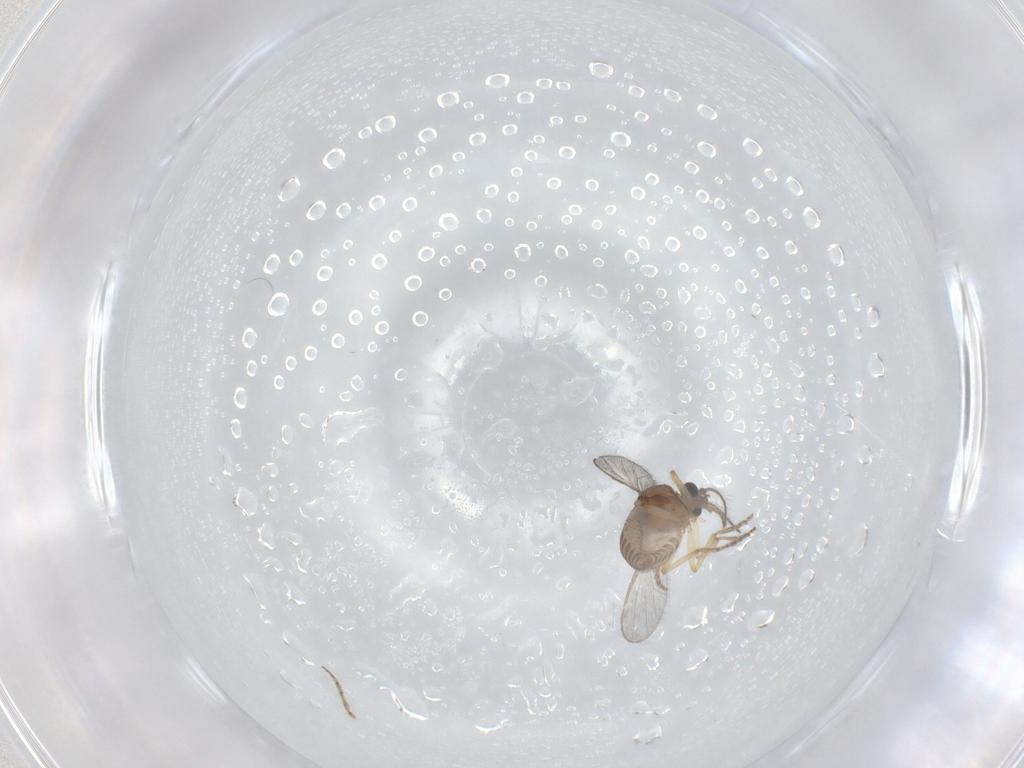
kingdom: Animalia
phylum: Arthropoda
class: Insecta
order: Diptera
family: Ceratopogonidae
